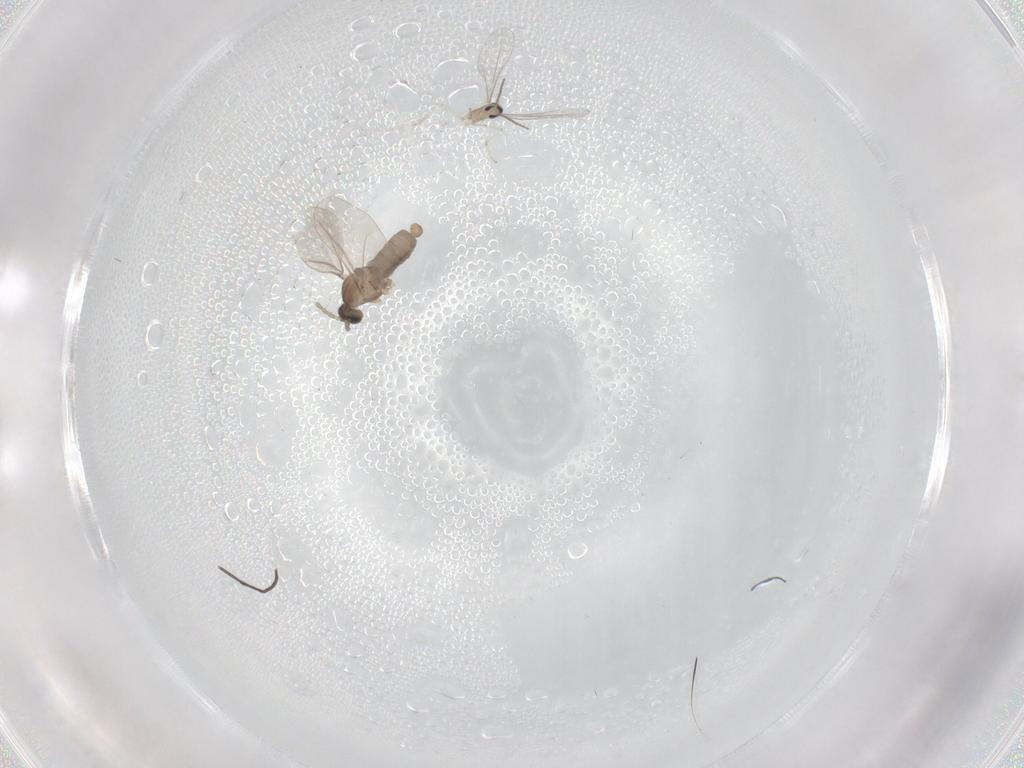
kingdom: Animalia
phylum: Arthropoda
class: Insecta
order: Diptera
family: Cecidomyiidae
